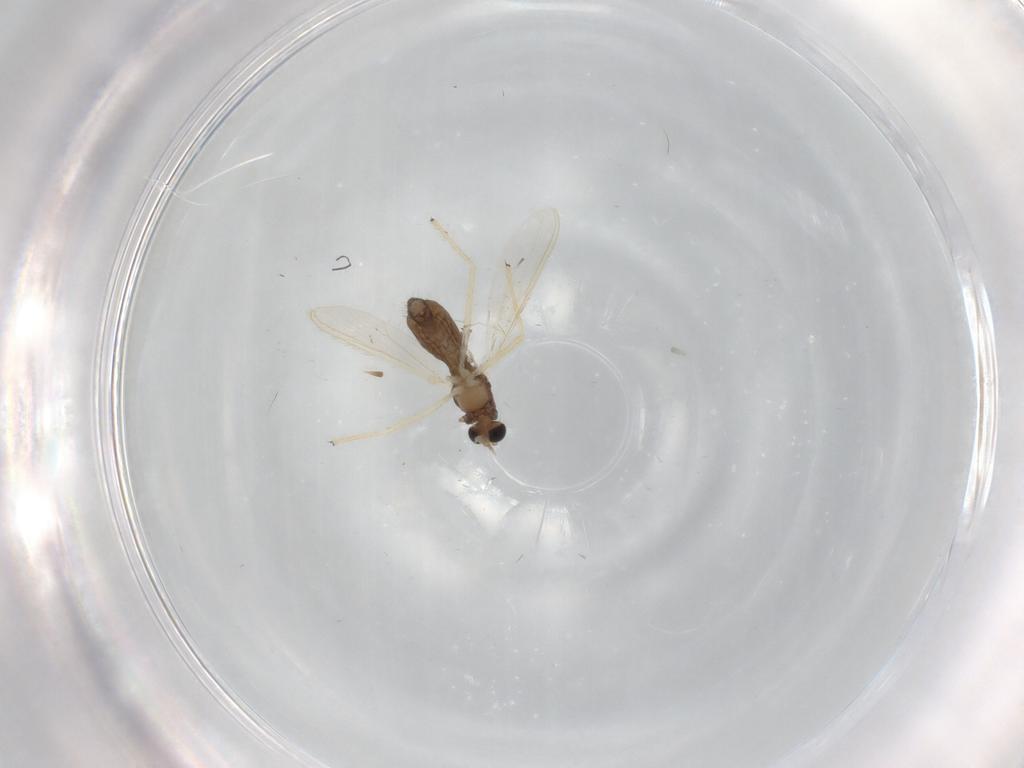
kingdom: Animalia
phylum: Arthropoda
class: Insecta
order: Diptera
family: Chironomidae
